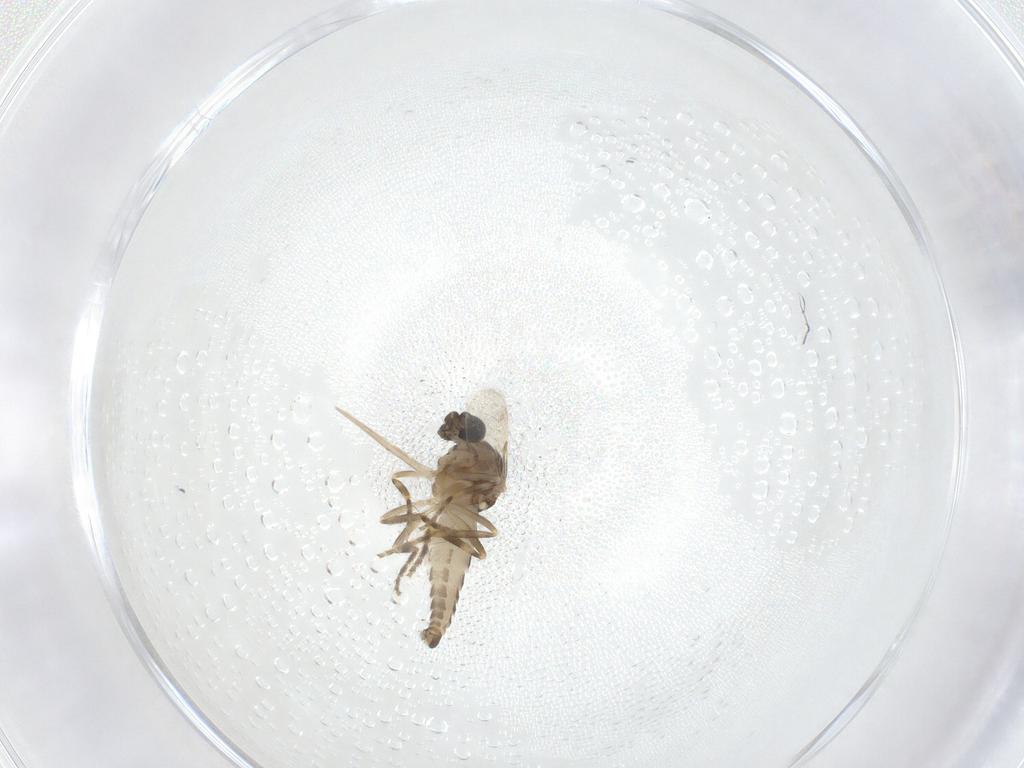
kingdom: Animalia
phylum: Arthropoda
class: Insecta
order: Diptera
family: Ceratopogonidae
